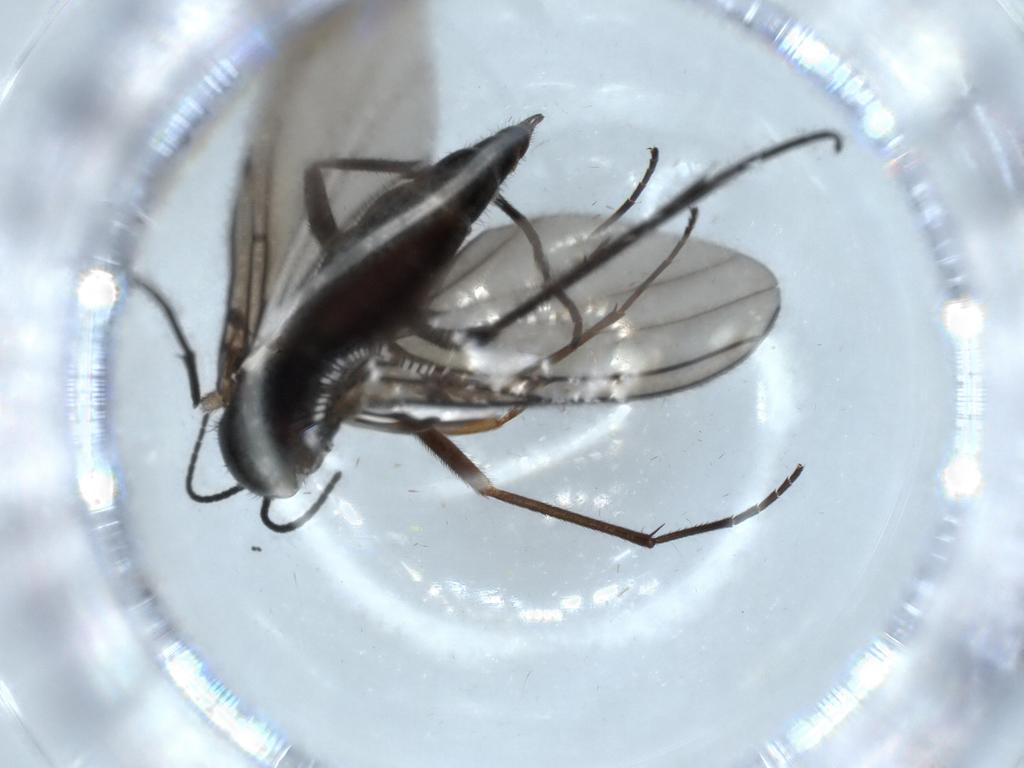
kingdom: Animalia
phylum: Arthropoda
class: Insecta
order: Diptera
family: Sciaridae
